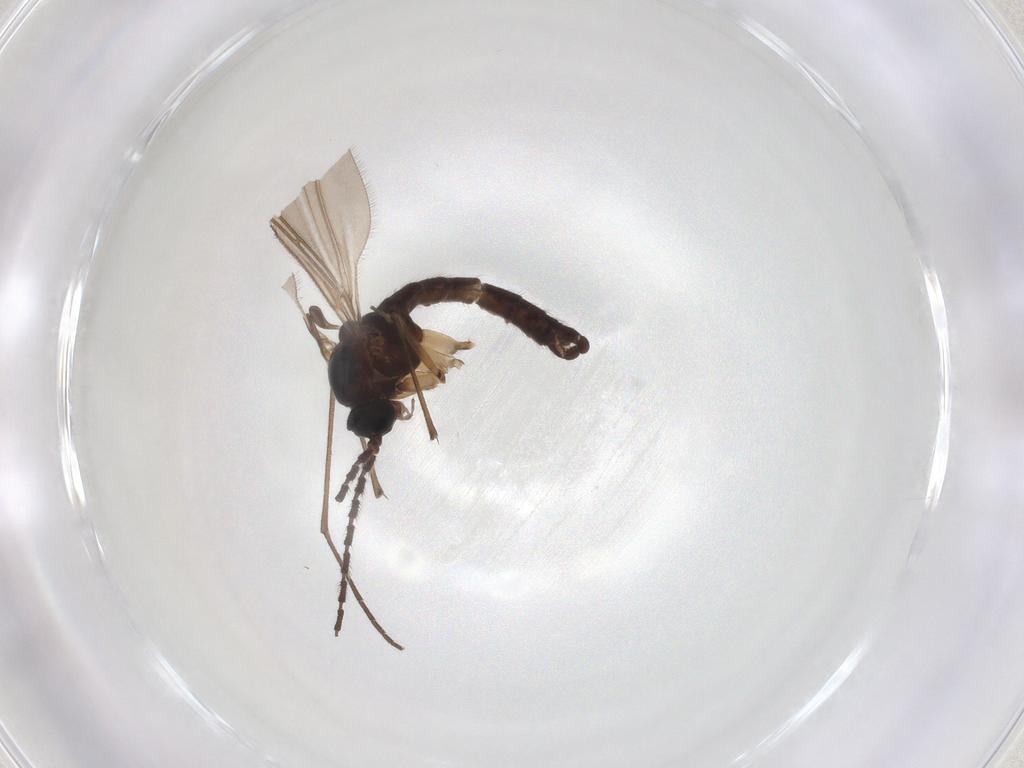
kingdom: Animalia
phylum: Arthropoda
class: Insecta
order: Diptera
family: Sciaridae
